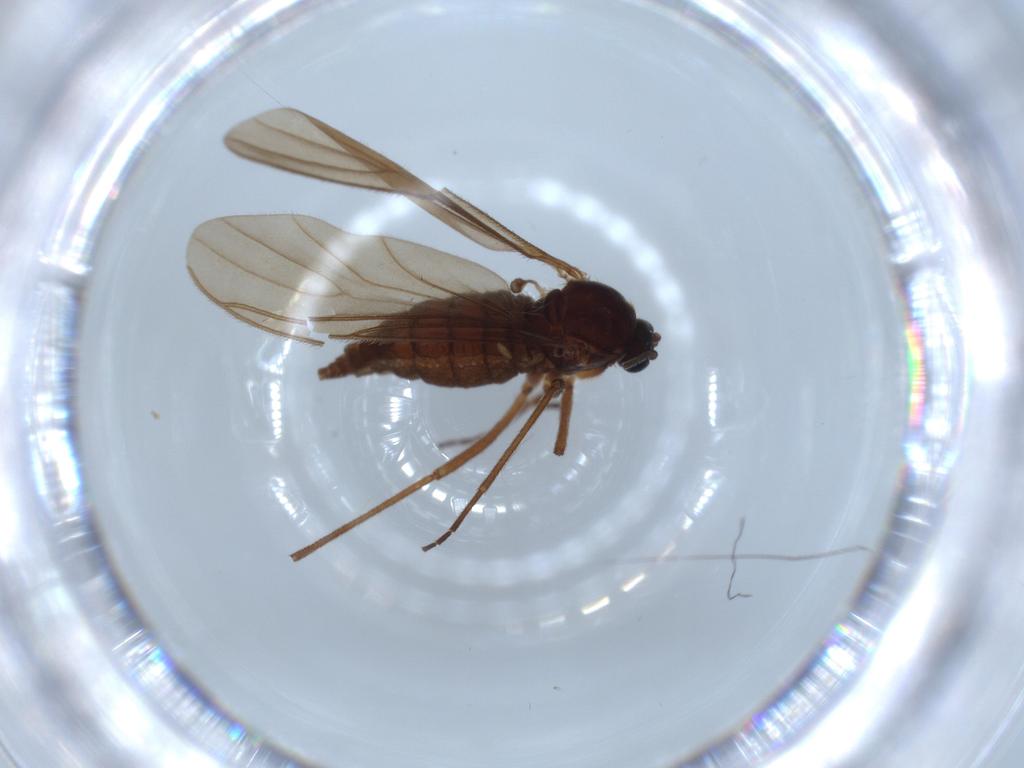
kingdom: Animalia
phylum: Arthropoda
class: Insecta
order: Diptera
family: Sciaridae
